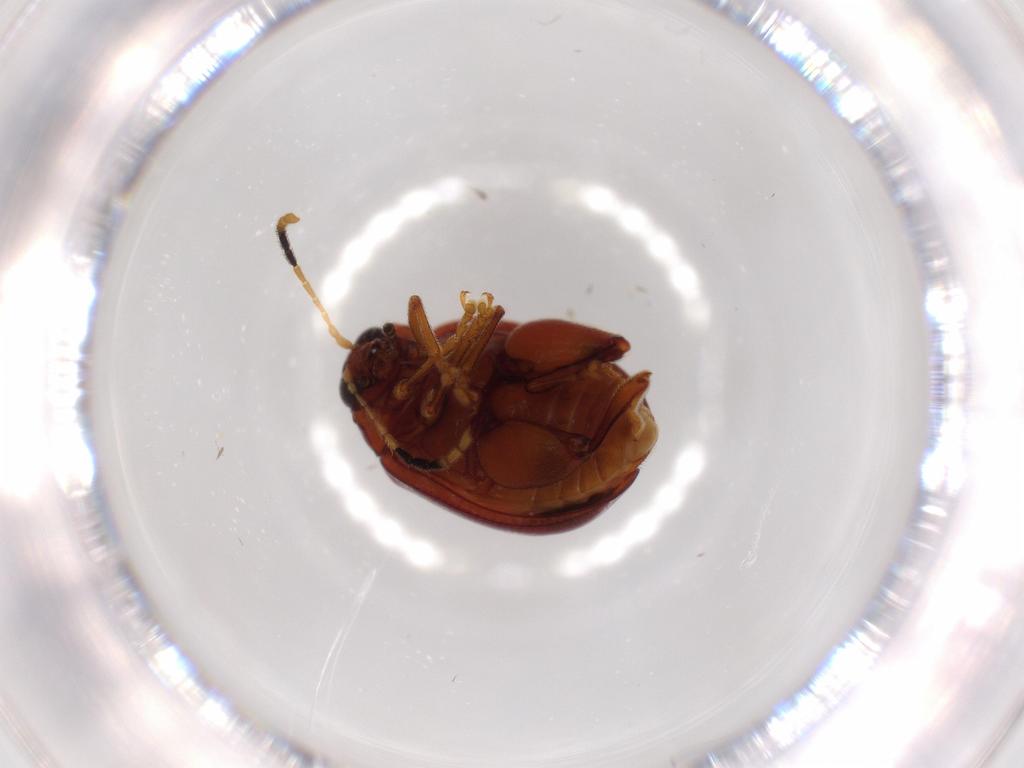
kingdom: Animalia
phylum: Arthropoda
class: Insecta
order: Coleoptera
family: Chrysomelidae
